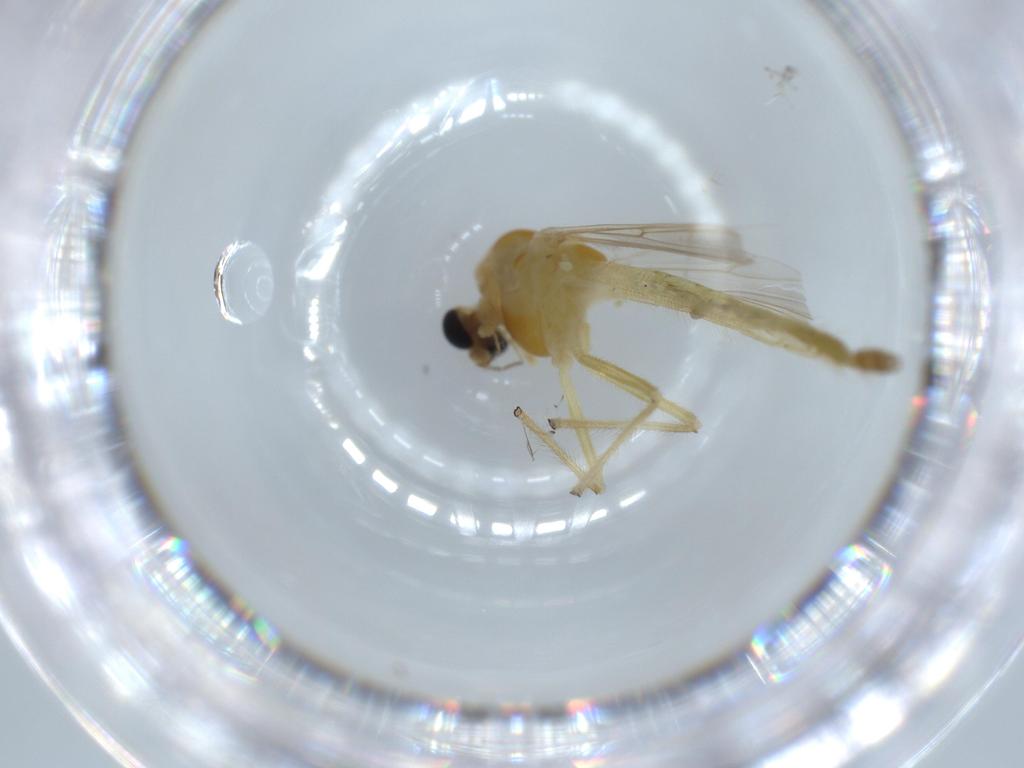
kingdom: Animalia
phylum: Arthropoda
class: Insecta
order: Diptera
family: Chironomidae
